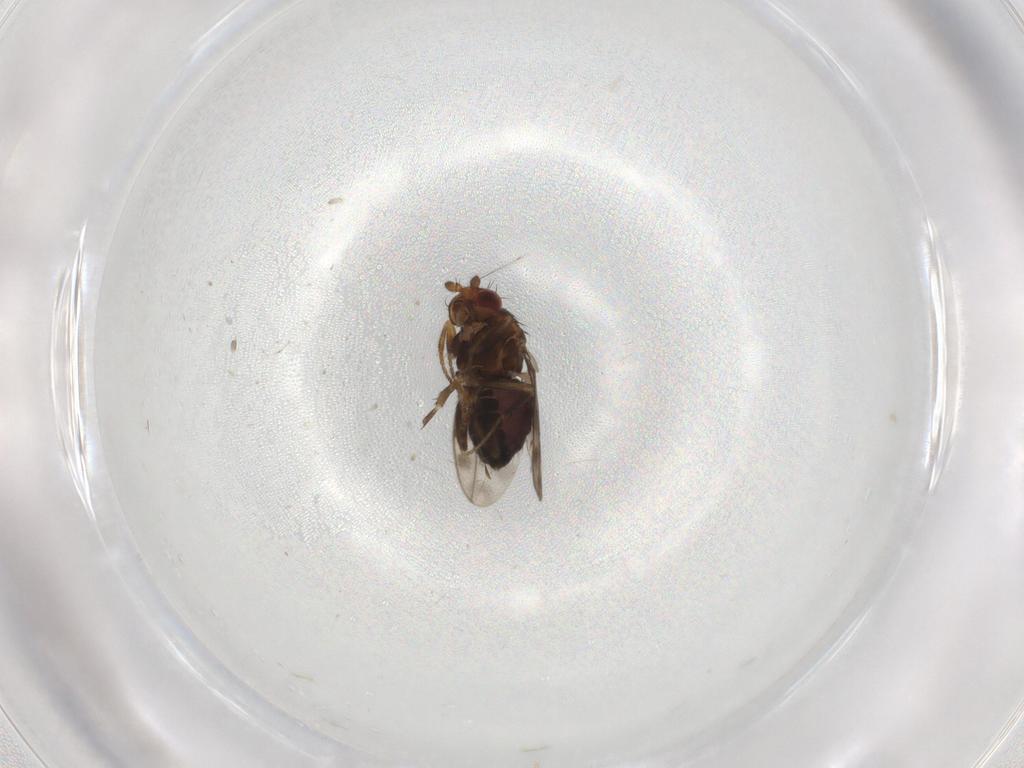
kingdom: Animalia
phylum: Arthropoda
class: Insecta
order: Diptera
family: Sphaeroceridae
